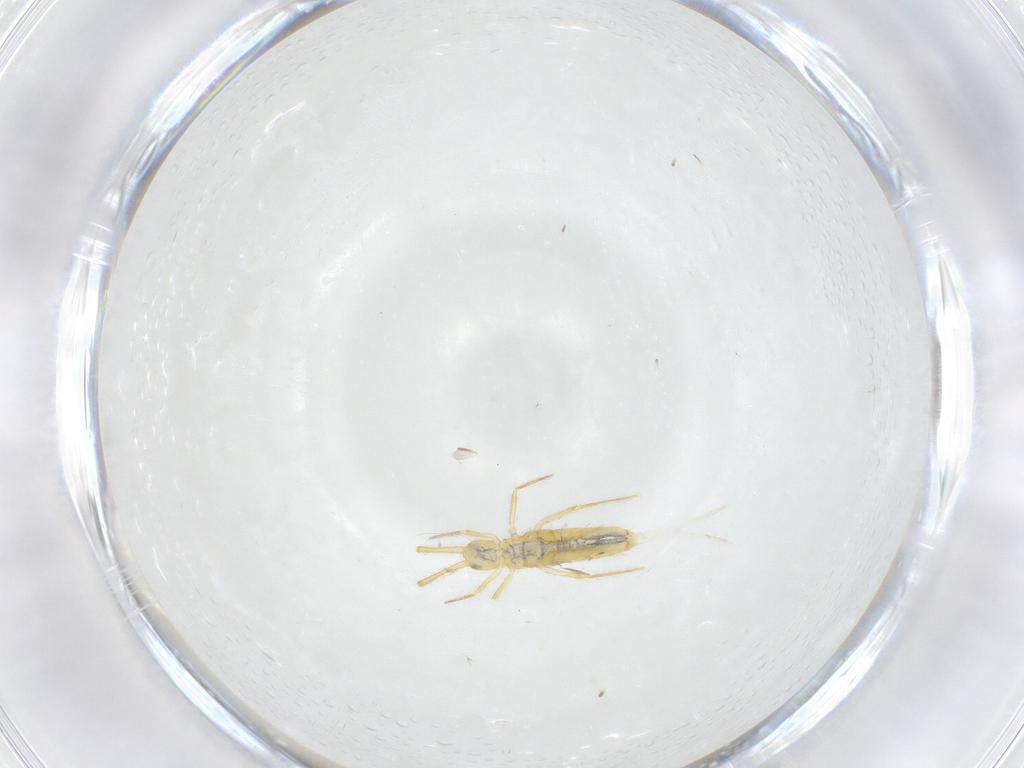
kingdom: Animalia
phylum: Arthropoda
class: Collembola
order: Entomobryomorpha
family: Paronellidae
